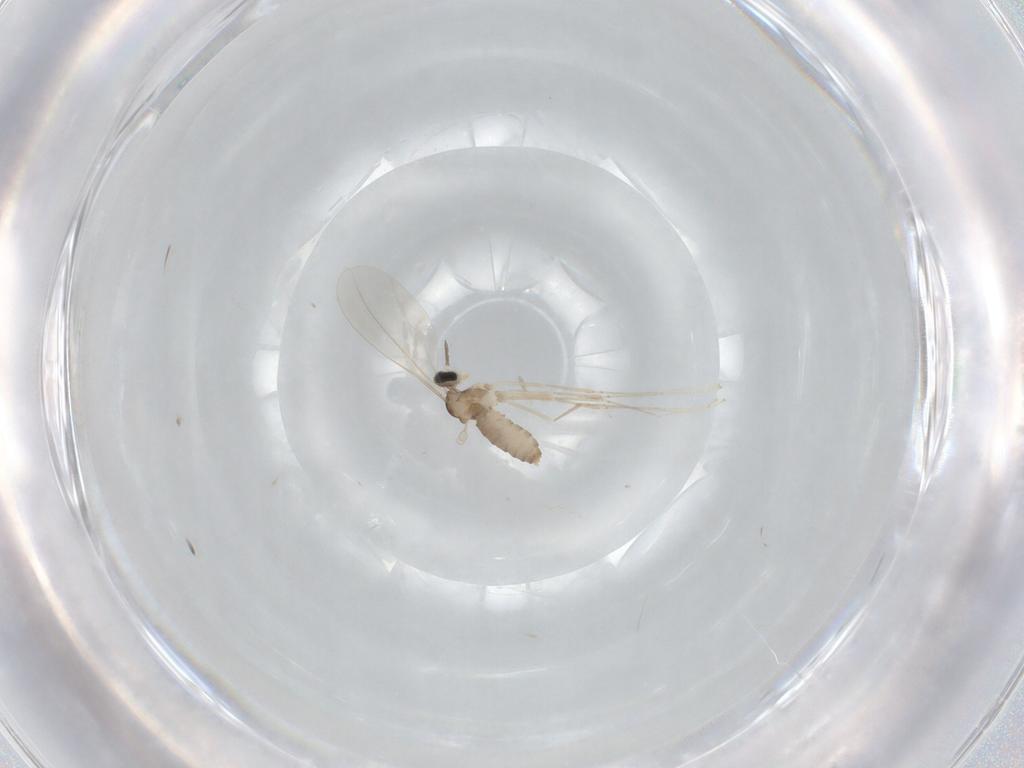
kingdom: Animalia
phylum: Arthropoda
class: Insecta
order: Diptera
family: Cecidomyiidae
